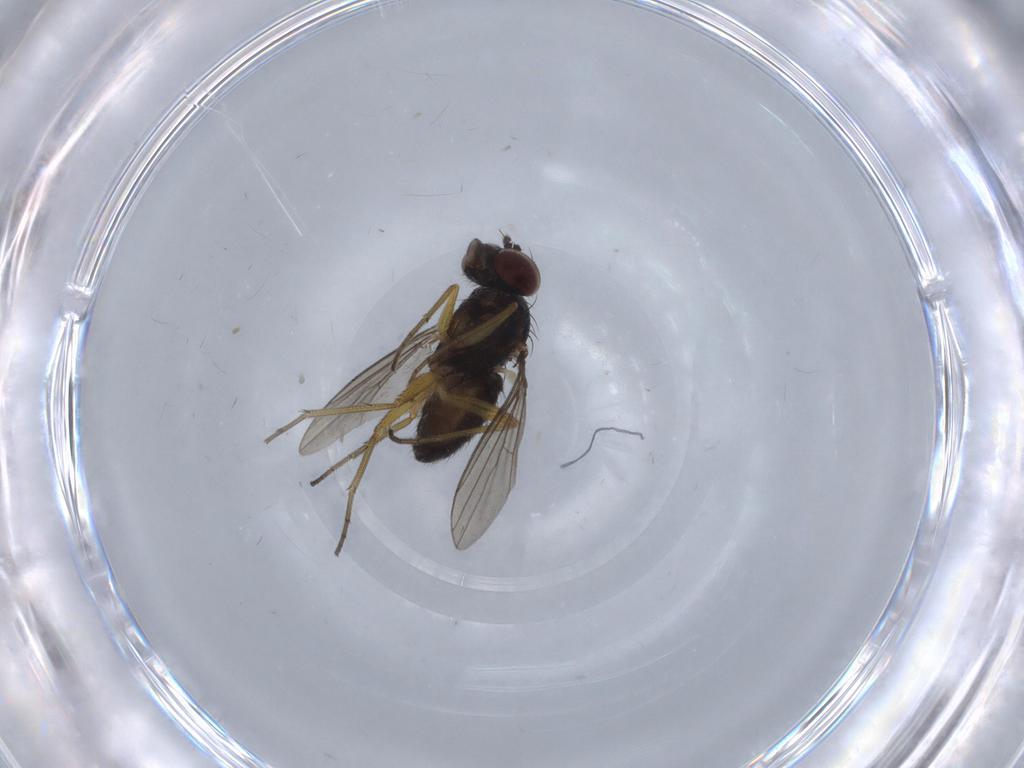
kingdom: Animalia
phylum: Arthropoda
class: Insecta
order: Diptera
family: Dolichopodidae
